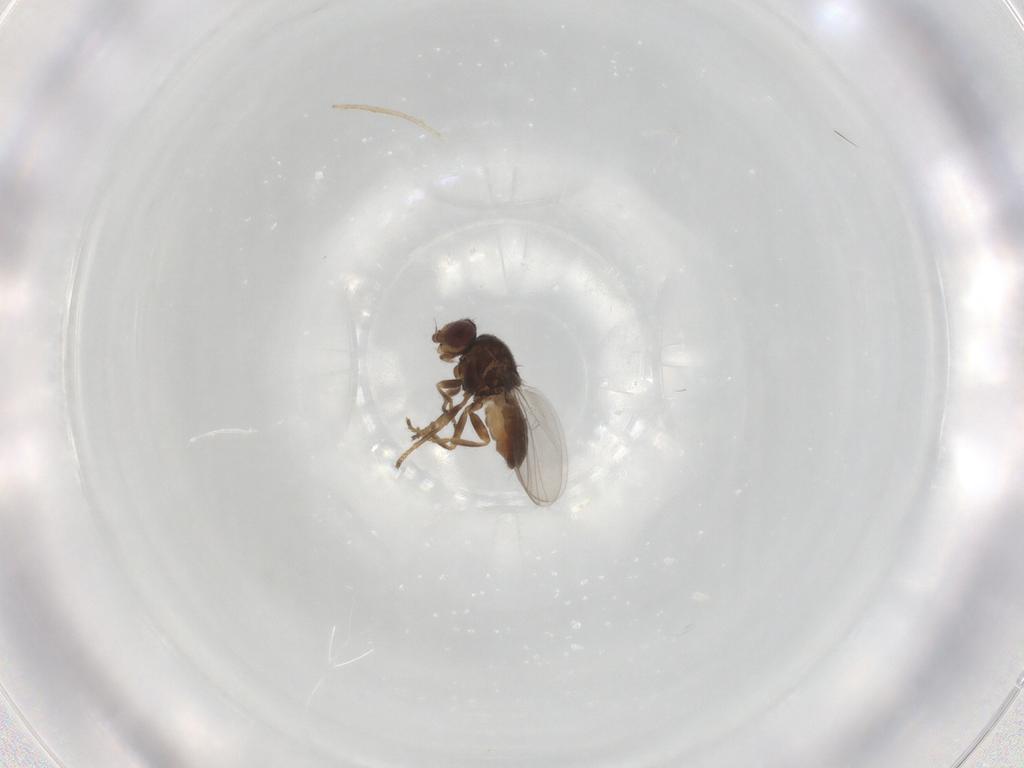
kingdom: Animalia
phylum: Arthropoda
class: Insecta
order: Diptera
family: Chloropidae
